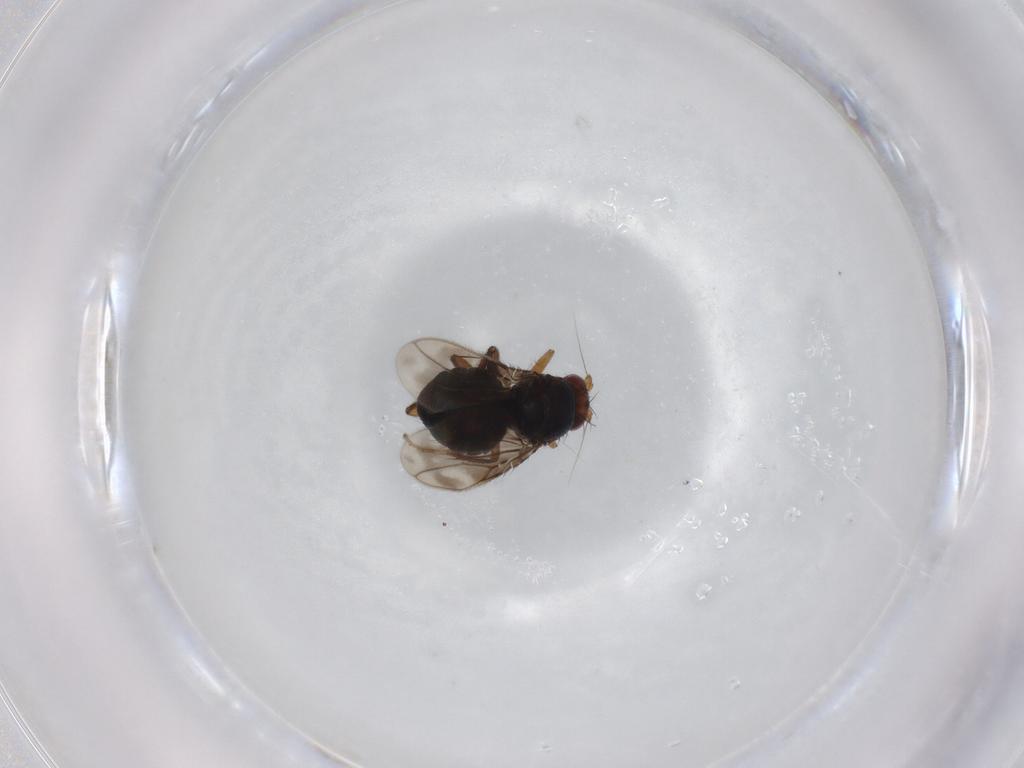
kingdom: Animalia
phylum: Arthropoda
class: Insecta
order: Diptera
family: Sphaeroceridae
